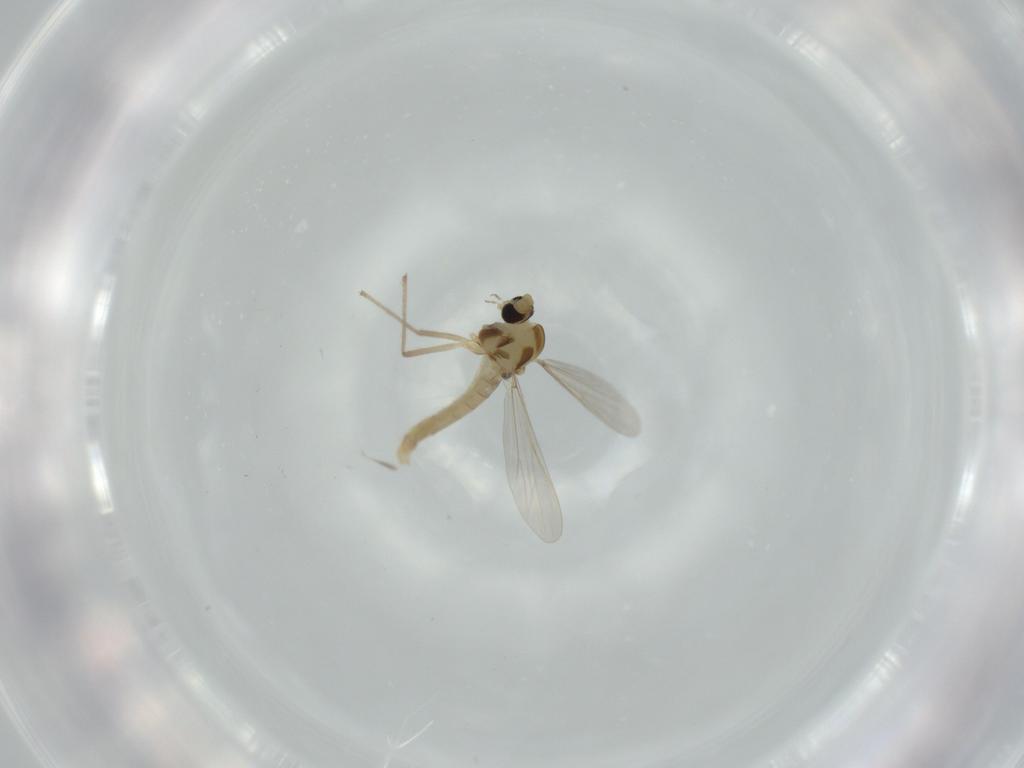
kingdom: Animalia
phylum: Arthropoda
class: Insecta
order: Diptera
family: Chironomidae
